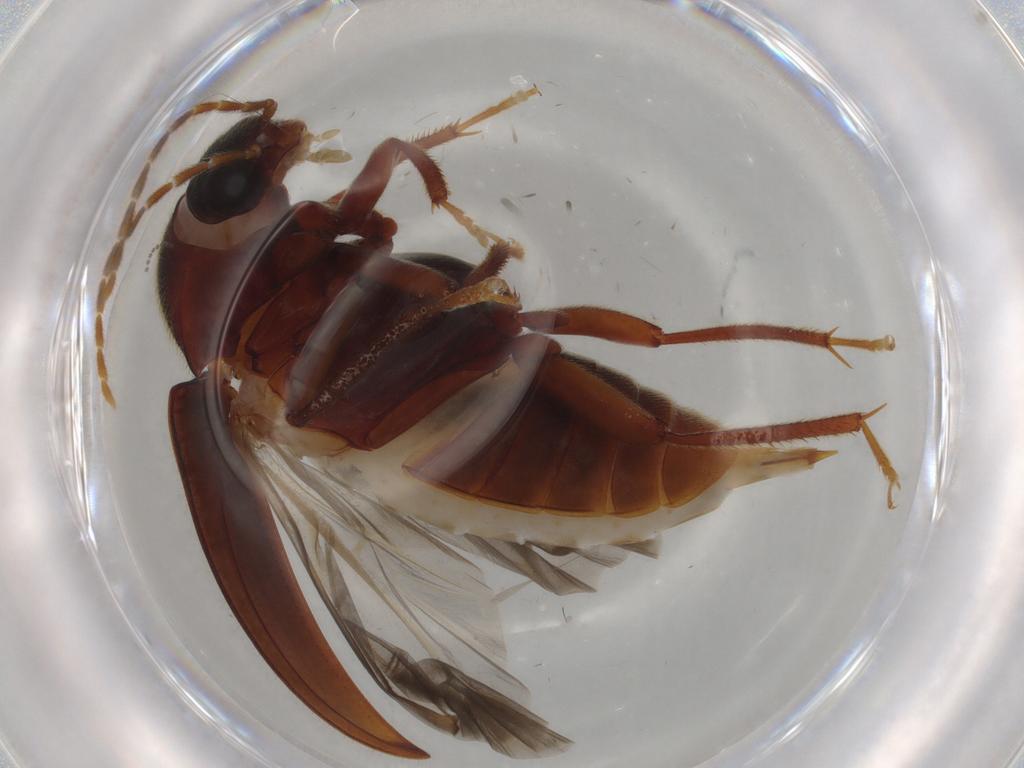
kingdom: Animalia
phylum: Arthropoda
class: Insecta
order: Coleoptera
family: Ptilodactylidae
